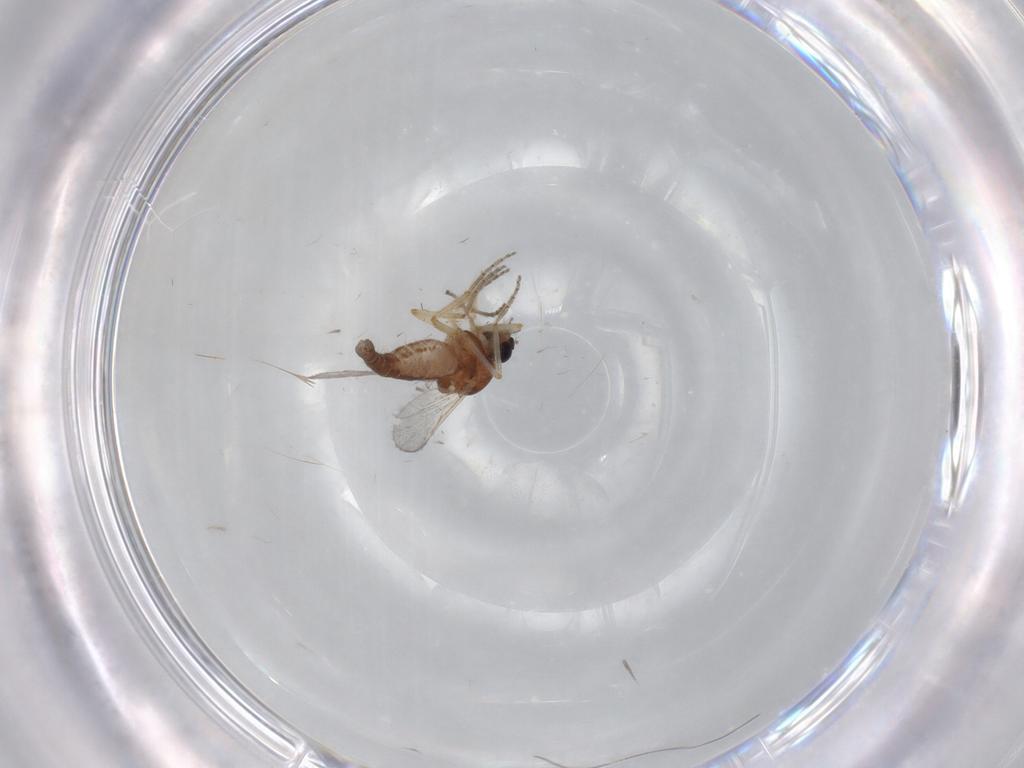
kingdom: Animalia
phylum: Arthropoda
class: Insecta
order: Diptera
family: Ceratopogonidae
